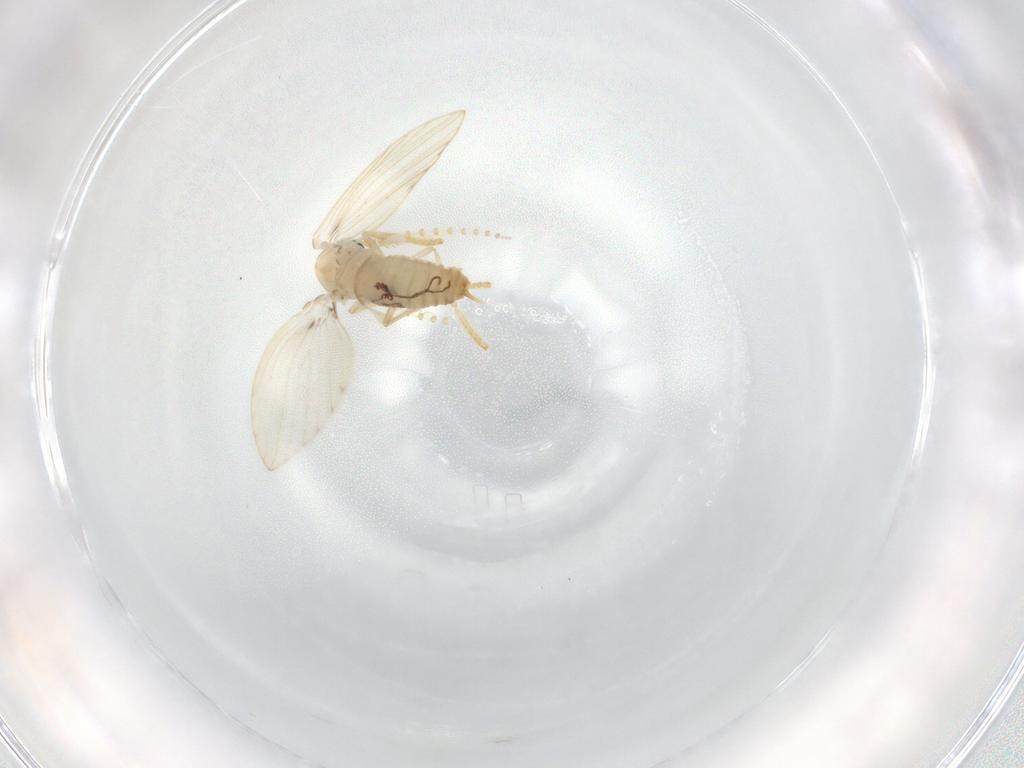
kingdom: Animalia
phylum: Arthropoda
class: Insecta
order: Diptera
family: Psychodidae
